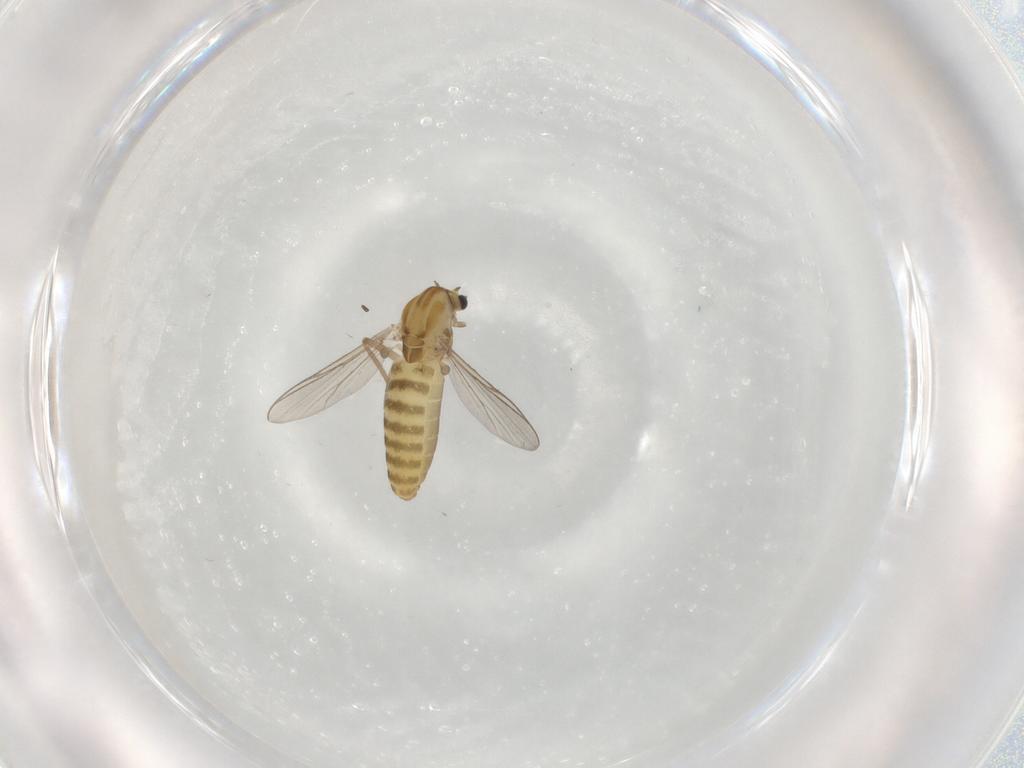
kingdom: Animalia
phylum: Arthropoda
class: Insecta
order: Diptera
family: Chironomidae
